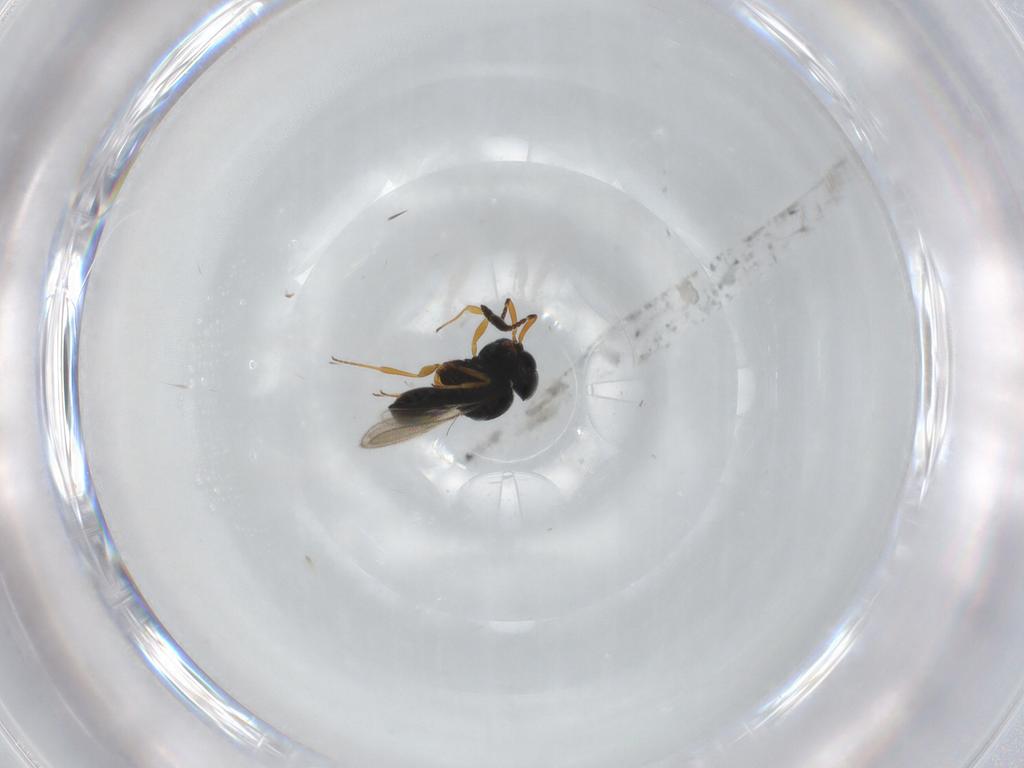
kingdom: Animalia
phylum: Arthropoda
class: Insecta
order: Hymenoptera
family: Scelionidae
